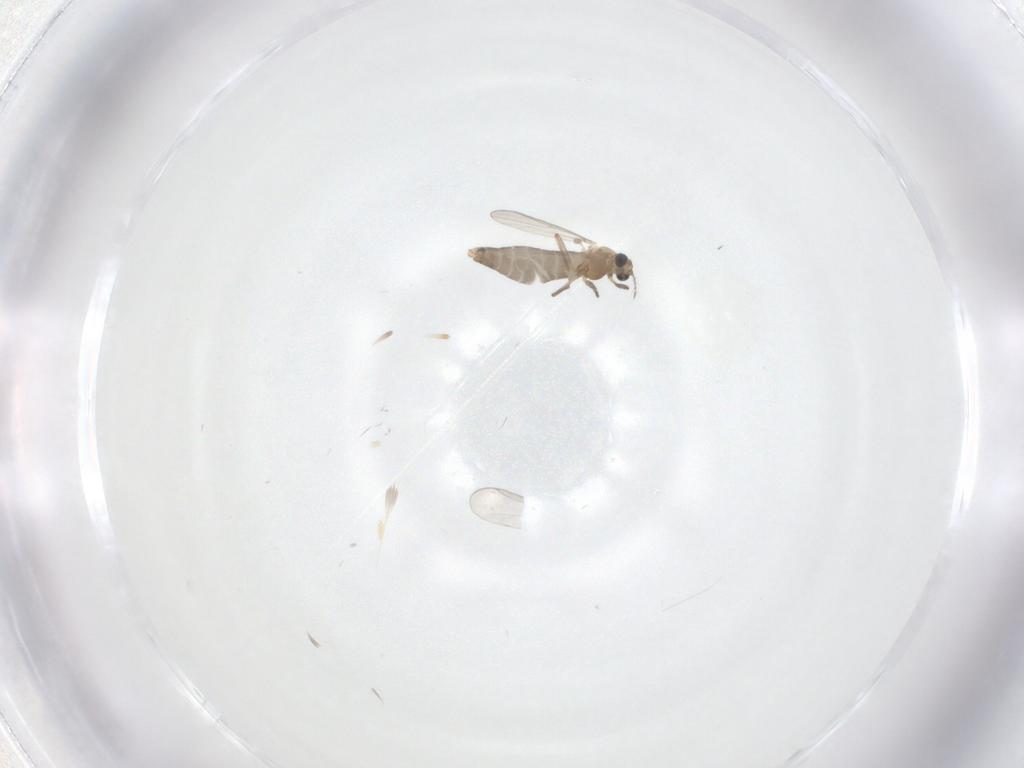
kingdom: Animalia
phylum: Arthropoda
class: Insecta
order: Diptera
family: Chironomidae
